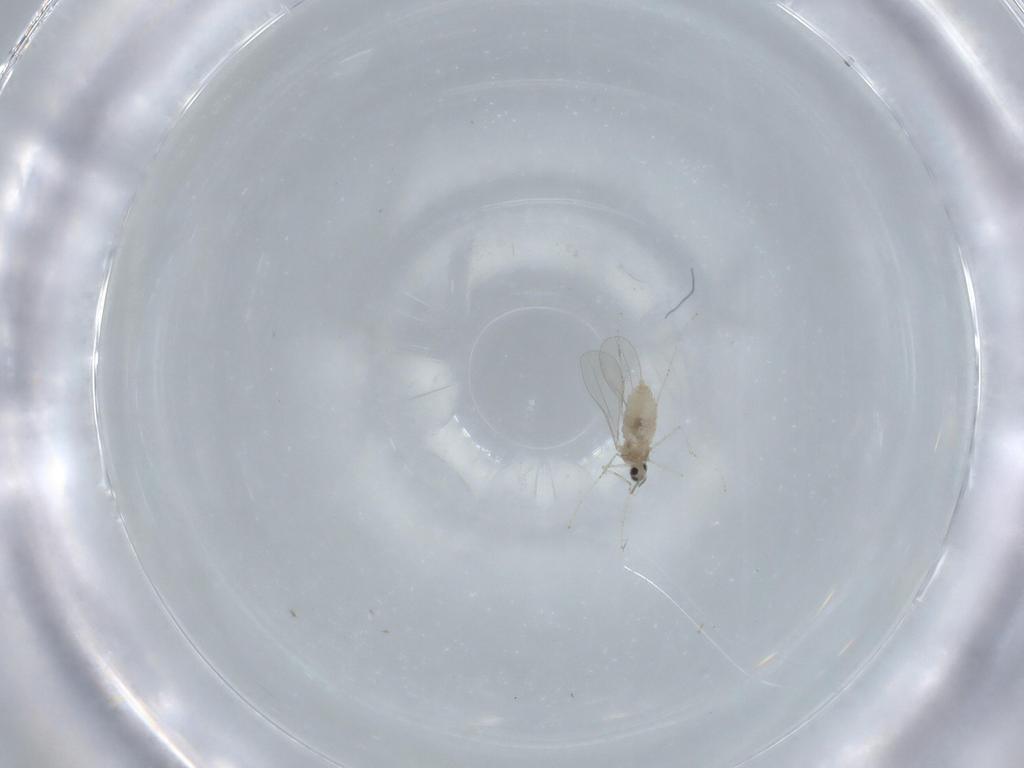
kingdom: Animalia
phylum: Arthropoda
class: Insecta
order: Diptera
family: Cecidomyiidae
